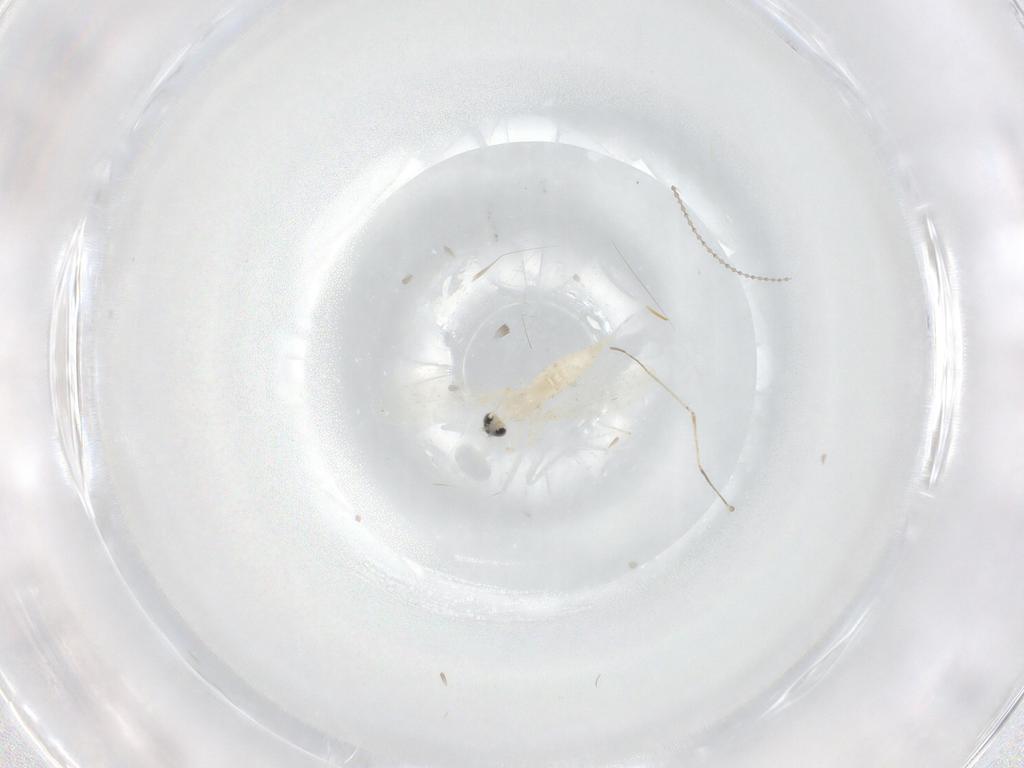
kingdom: Animalia
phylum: Arthropoda
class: Insecta
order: Diptera
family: Cecidomyiidae
